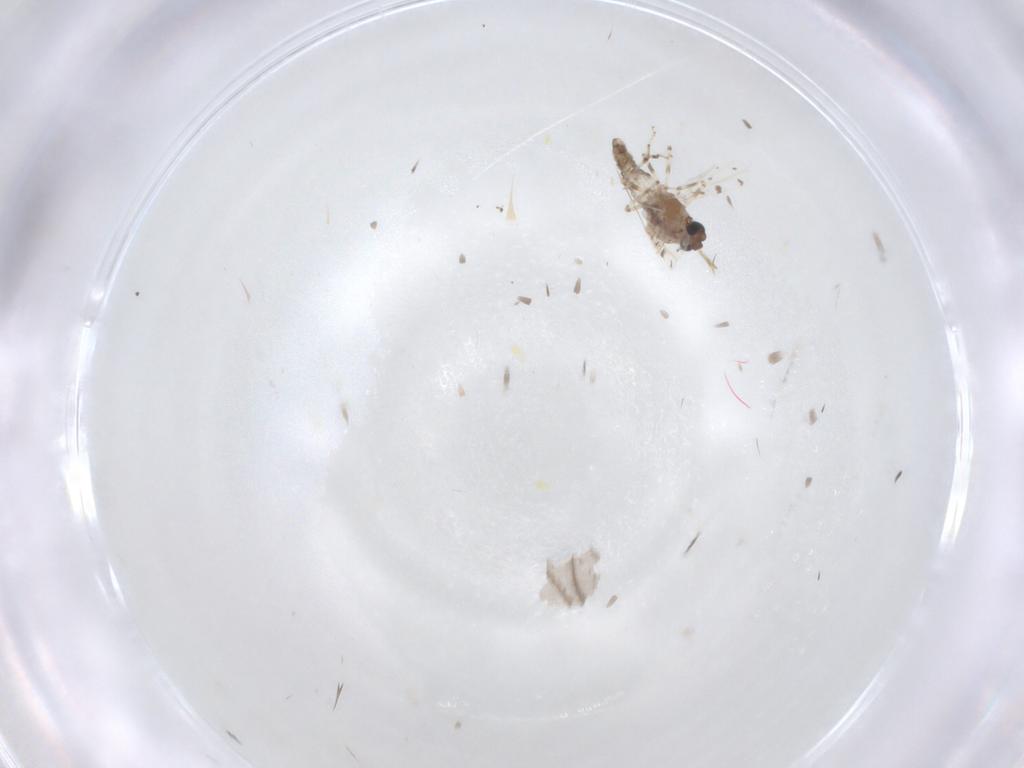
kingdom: Animalia
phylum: Arthropoda
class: Insecta
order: Diptera
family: Ceratopogonidae
